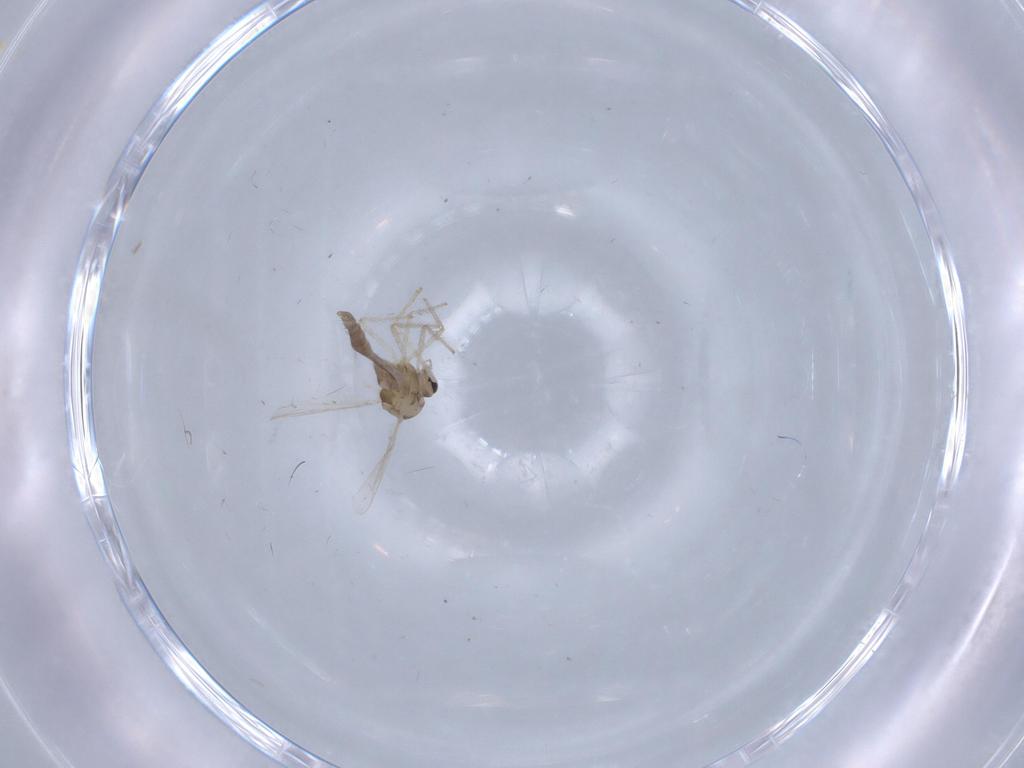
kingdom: Animalia
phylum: Arthropoda
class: Insecta
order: Diptera
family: Chironomidae
